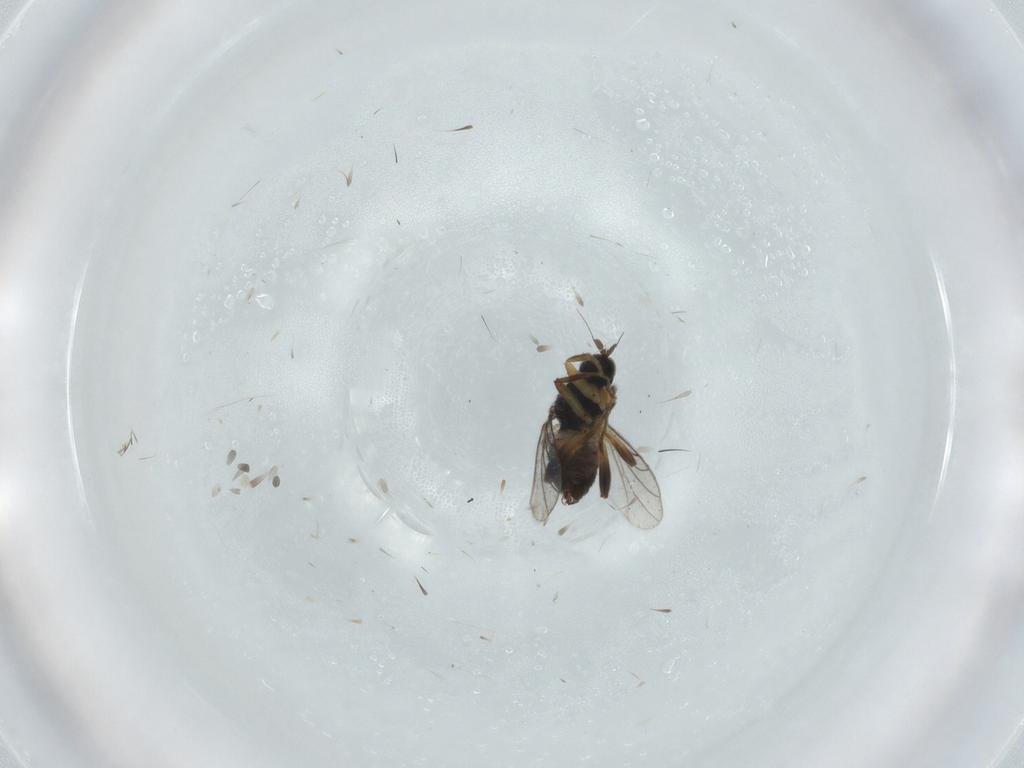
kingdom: Animalia
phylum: Arthropoda
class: Insecta
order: Diptera
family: Hybotidae
